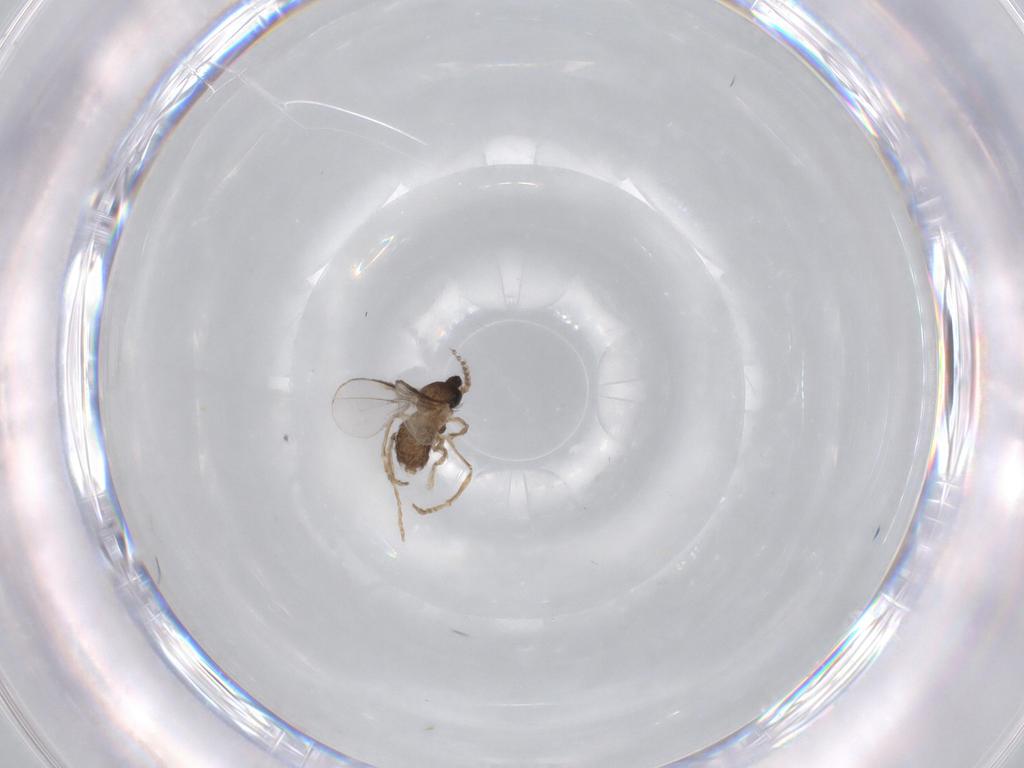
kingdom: Animalia
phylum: Arthropoda
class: Insecta
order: Diptera
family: Cecidomyiidae
